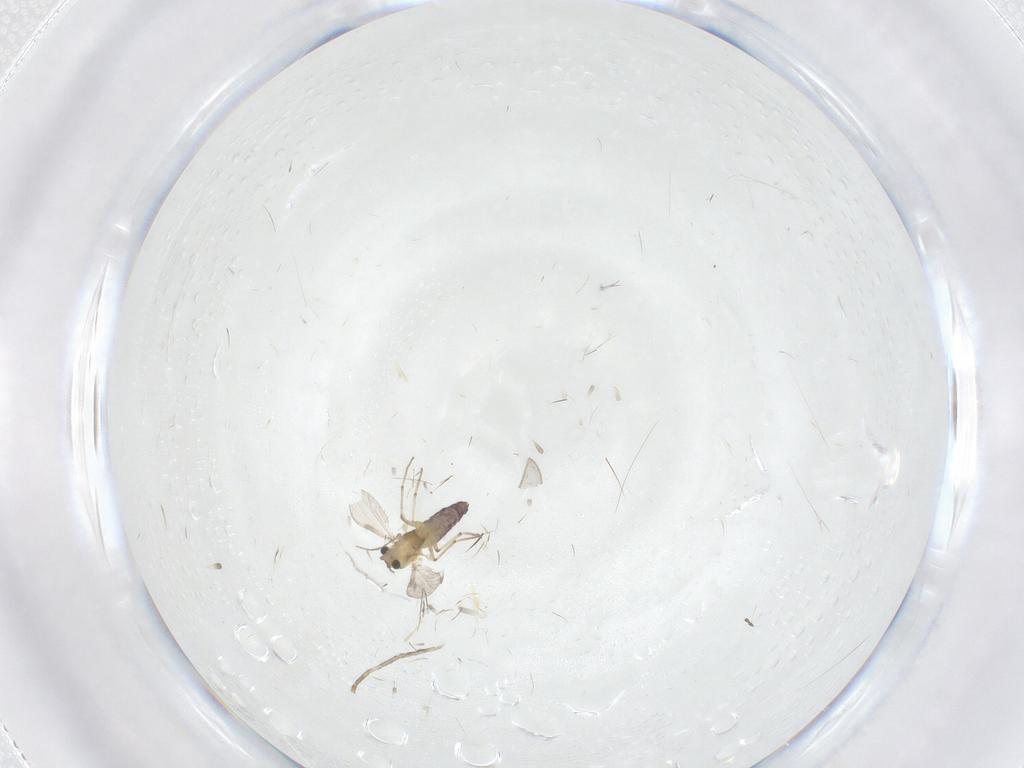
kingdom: Animalia
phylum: Arthropoda
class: Insecta
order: Diptera
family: Chironomidae
